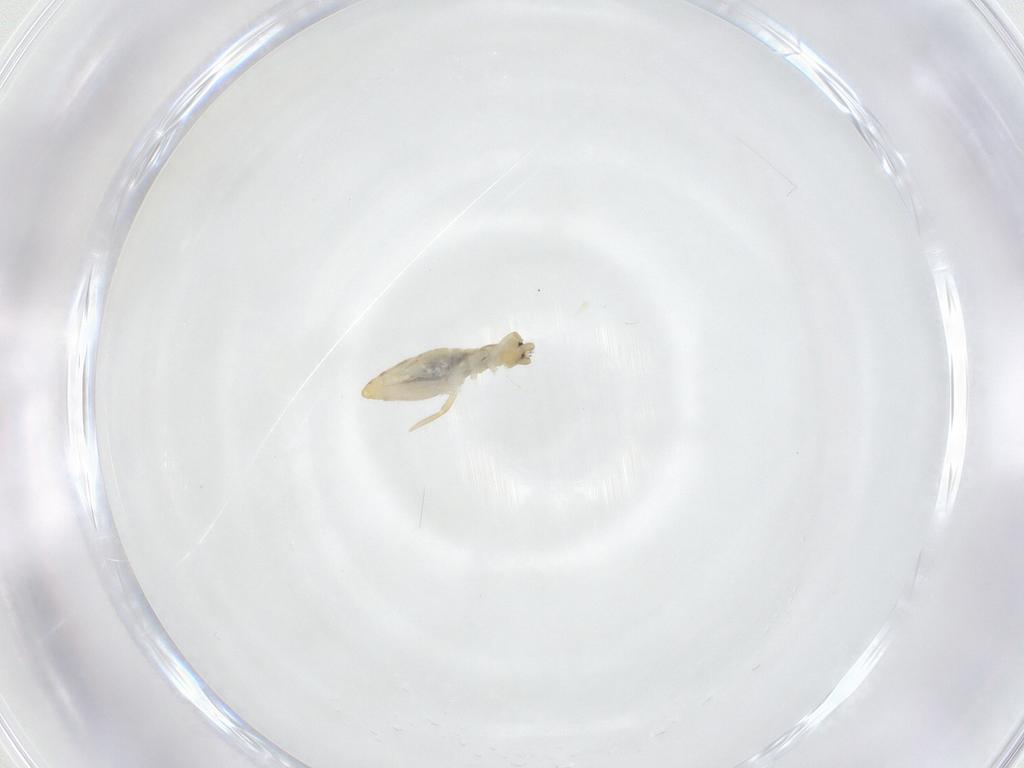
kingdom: Animalia
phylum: Arthropoda
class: Collembola
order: Entomobryomorpha
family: Entomobryidae
